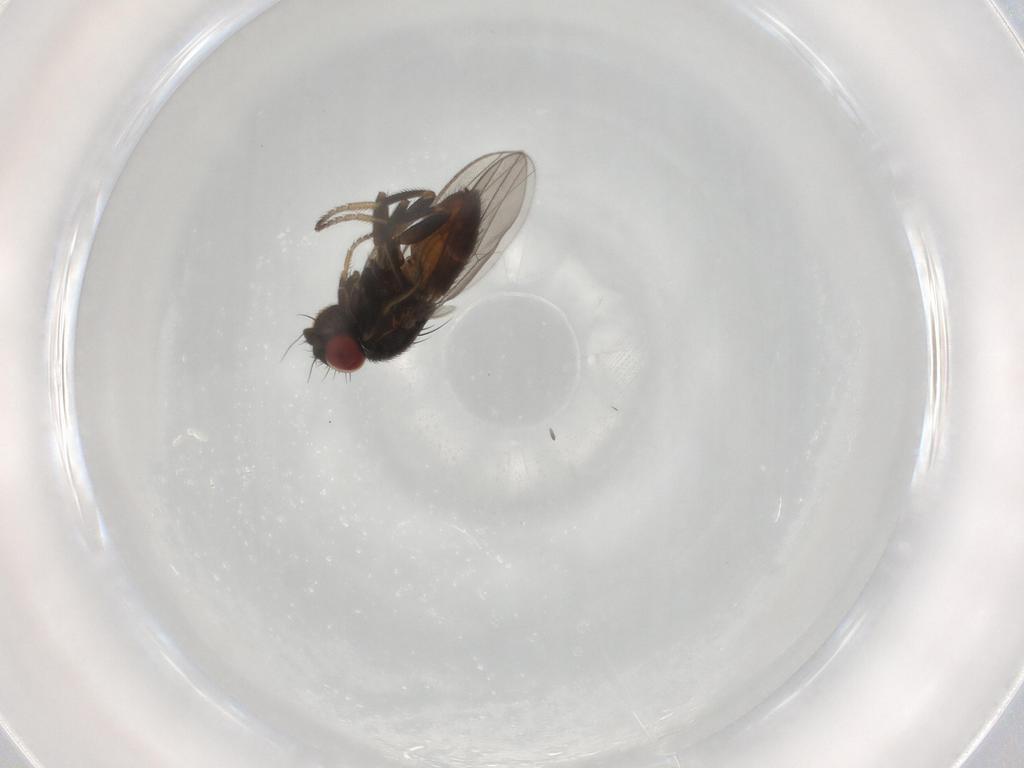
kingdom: Animalia
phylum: Arthropoda
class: Insecta
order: Diptera
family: Milichiidae
